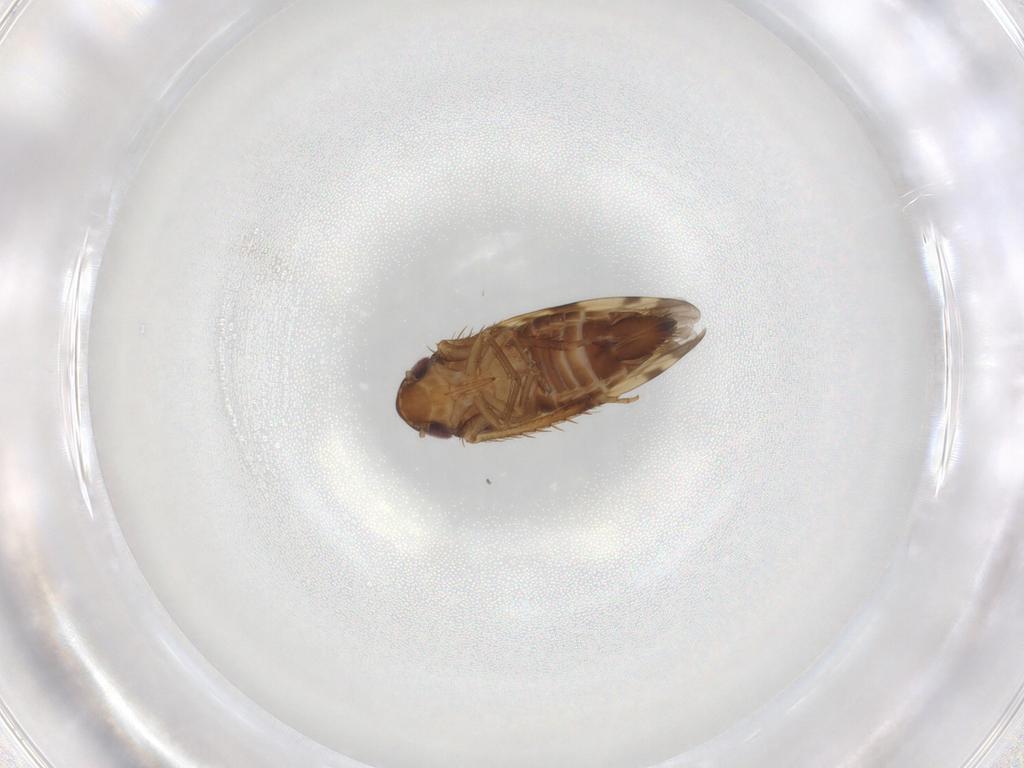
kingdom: Animalia
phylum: Arthropoda
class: Insecta
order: Hemiptera
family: Cicadellidae
